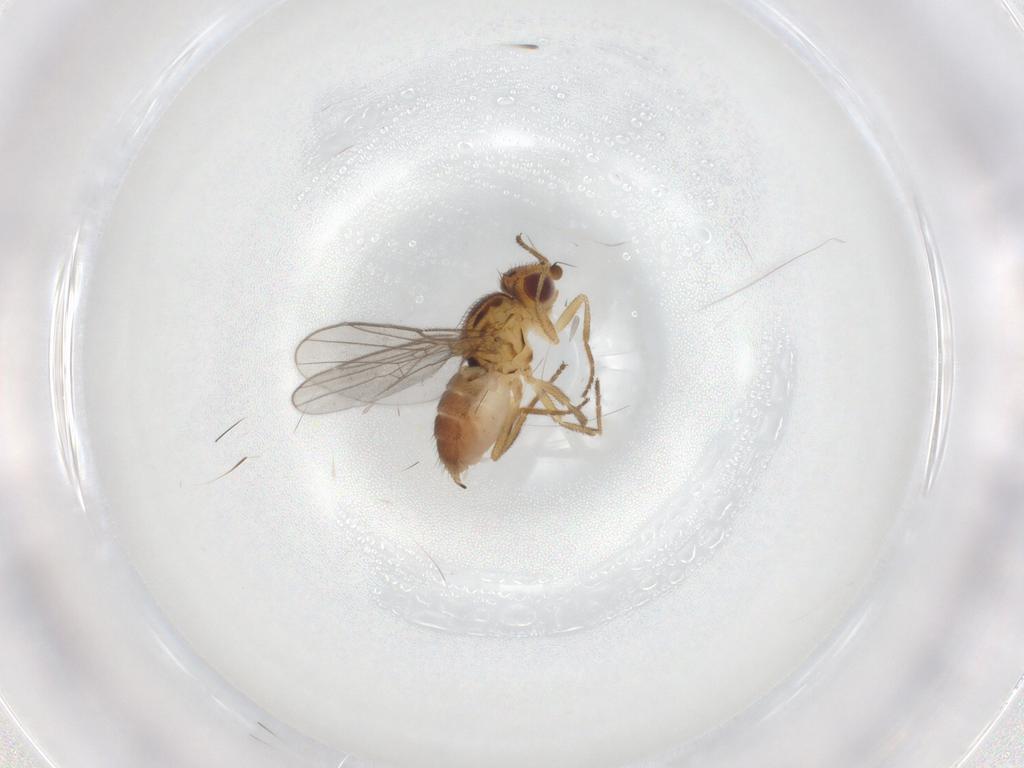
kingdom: Animalia
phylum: Arthropoda
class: Insecta
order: Diptera
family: Chloropidae
